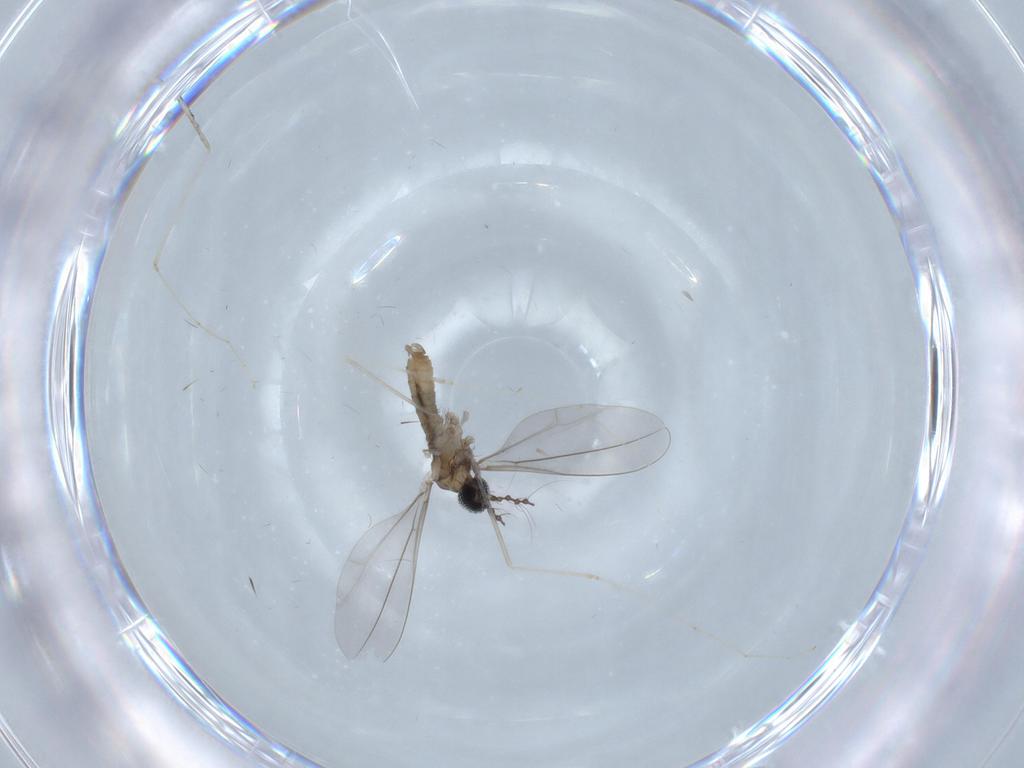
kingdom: Animalia
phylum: Arthropoda
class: Insecta
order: Diptera
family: Cecidomyiidae
